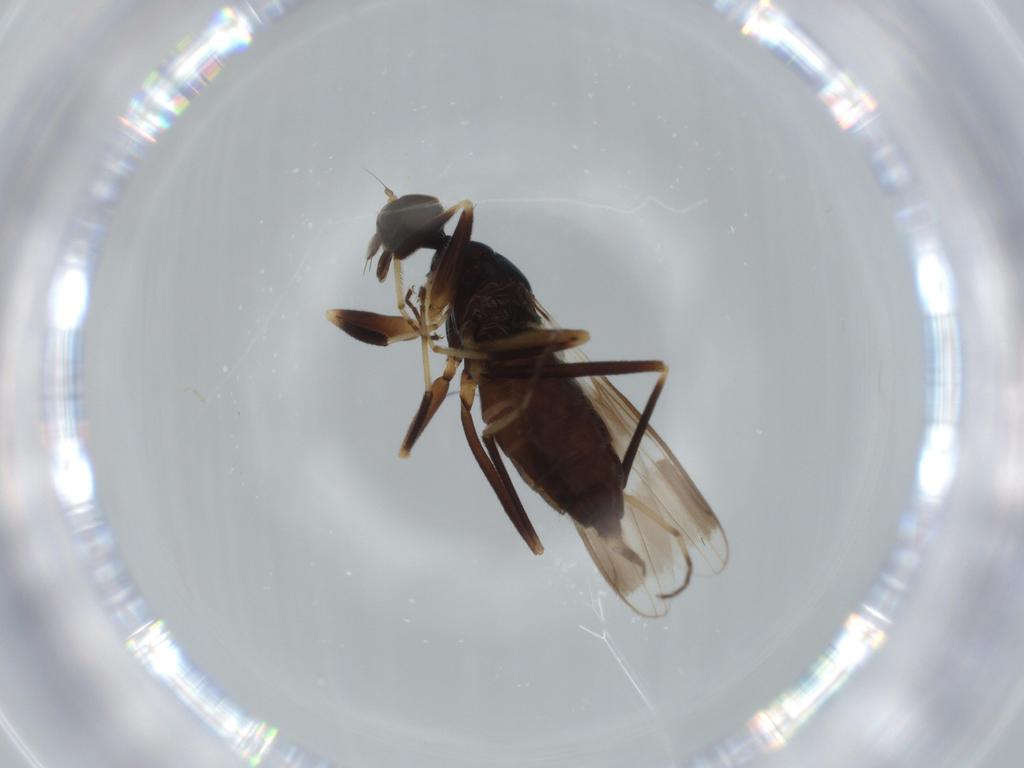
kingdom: Animalia
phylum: Arthropoda
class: Insecta
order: Diptera
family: Hybotidae
